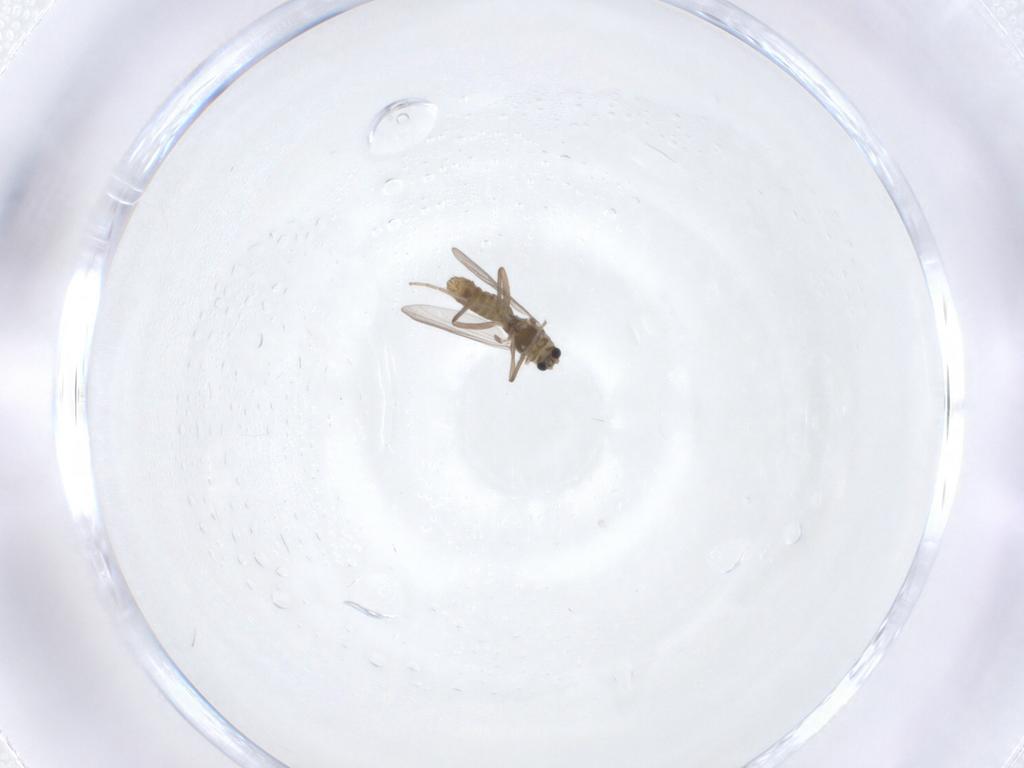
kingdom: Animalia
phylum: Arthropoda
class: Insecta
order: Diptera
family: Chironomidae
